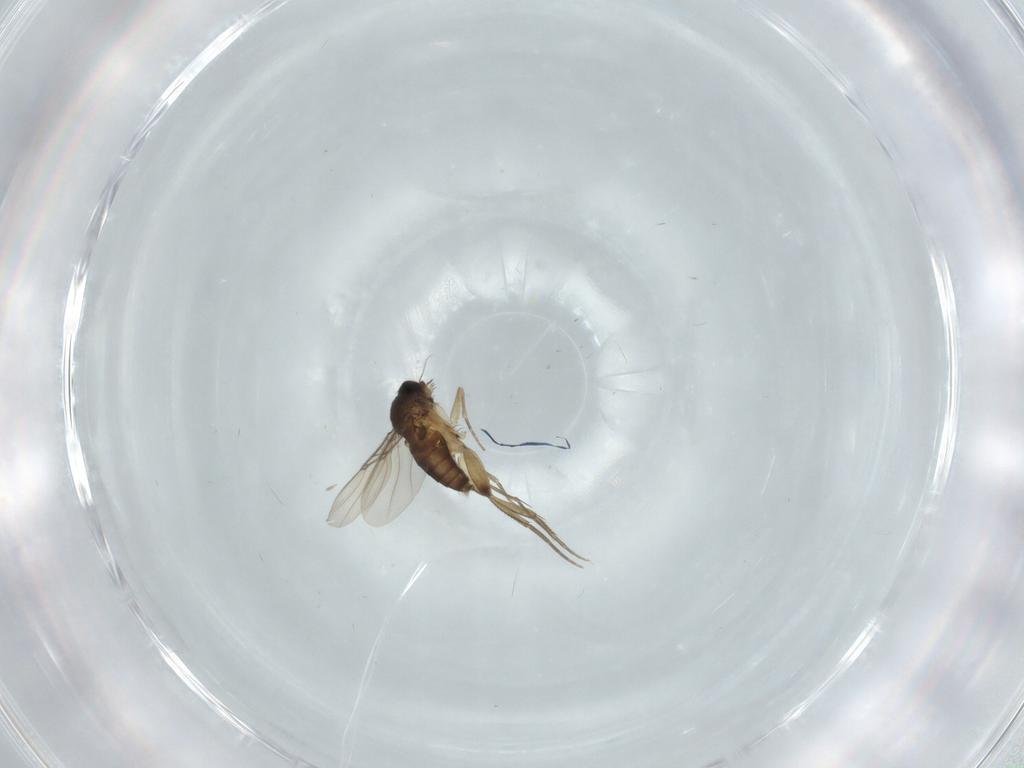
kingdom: Animalia
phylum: Arthropoda
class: Insecta
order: Diptera
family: Cecidomyiidae
